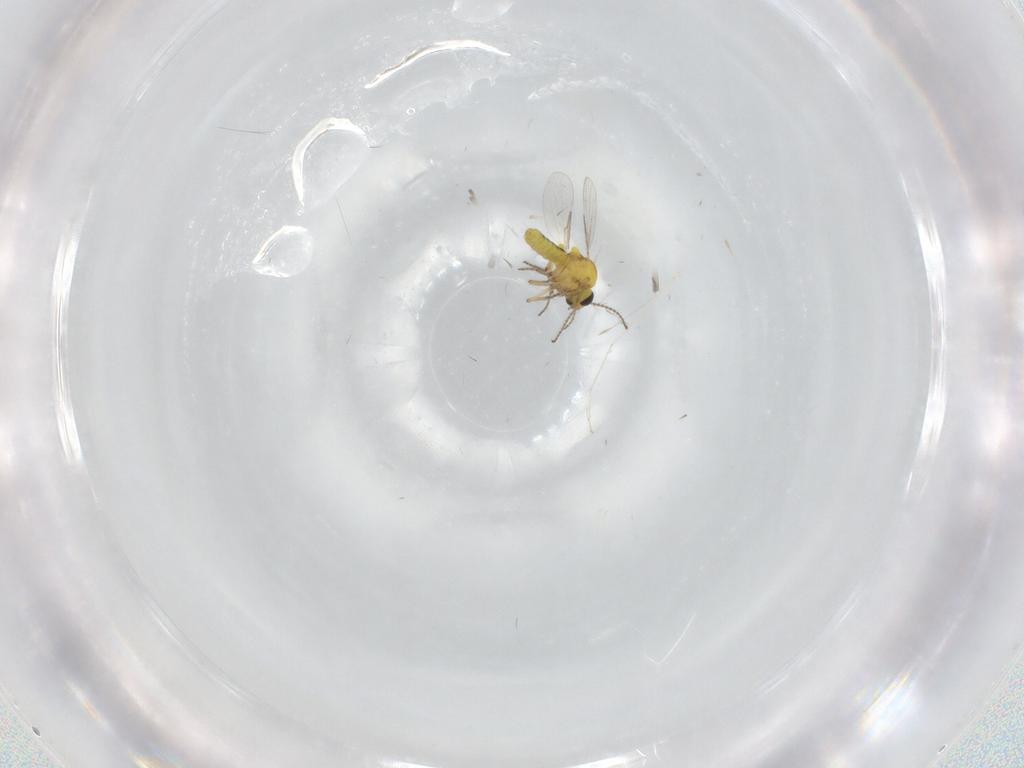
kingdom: Animalia
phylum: Arthropoda
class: Insecta
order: Diptera
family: Ceratopogonidae
